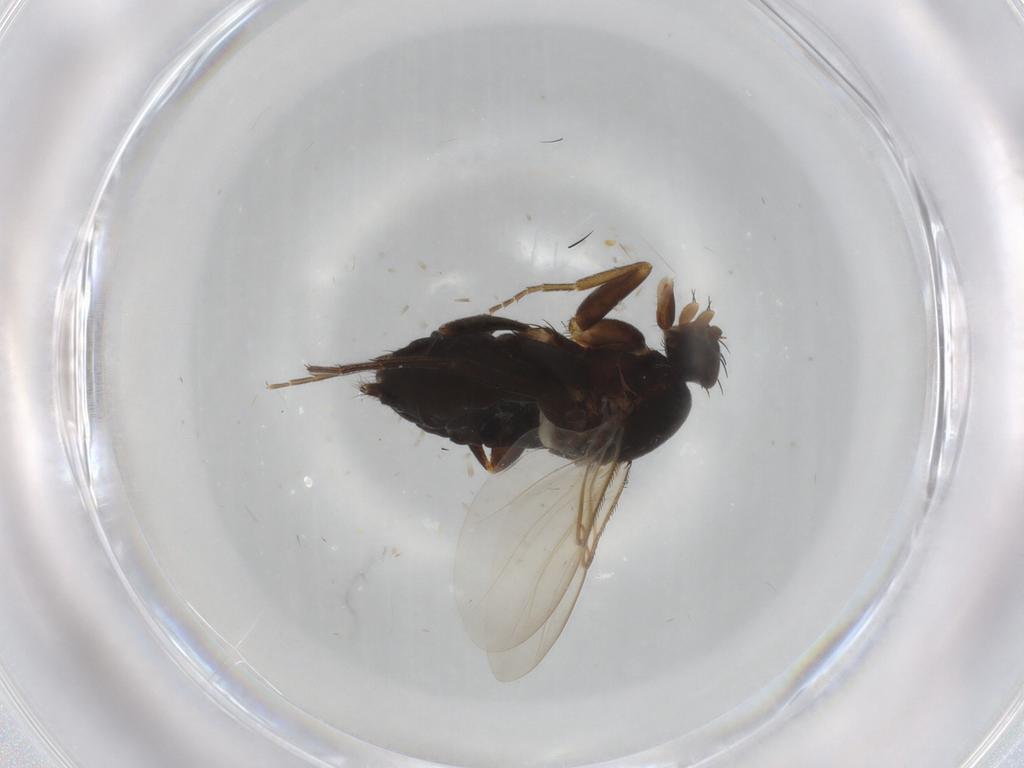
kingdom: Animalia
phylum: Arthropoda
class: Insecta
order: Diptera
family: Phoridae
